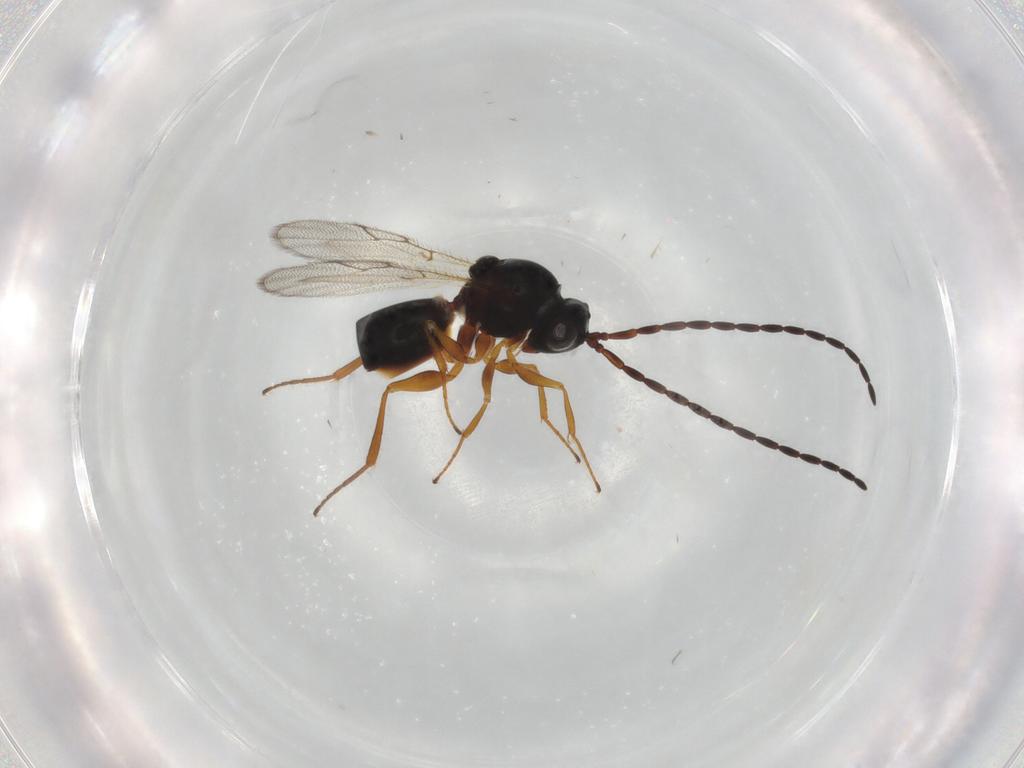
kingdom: Animalia
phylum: Arthropoda
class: Insecta
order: Hymenoptera
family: Figitidae
